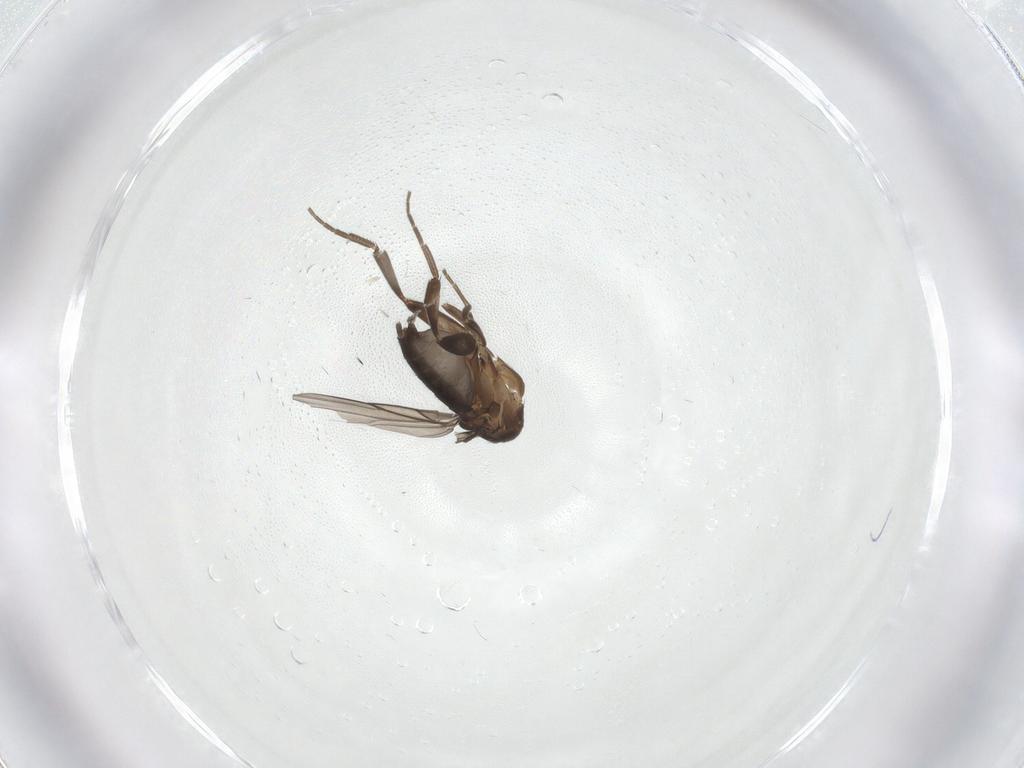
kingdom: Animalia
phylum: Arthropoda
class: Insecta
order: Diptera
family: Phoridae
